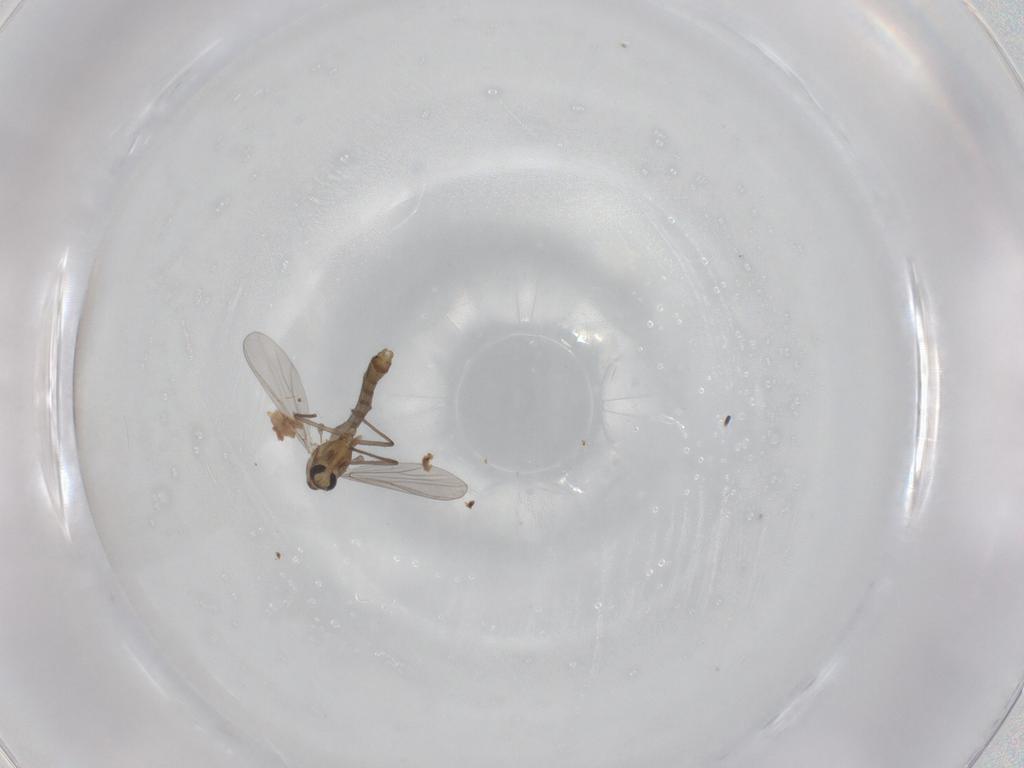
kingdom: Animalia
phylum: Arthropoda
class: Insecta
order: Diptera
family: Chironomidae
